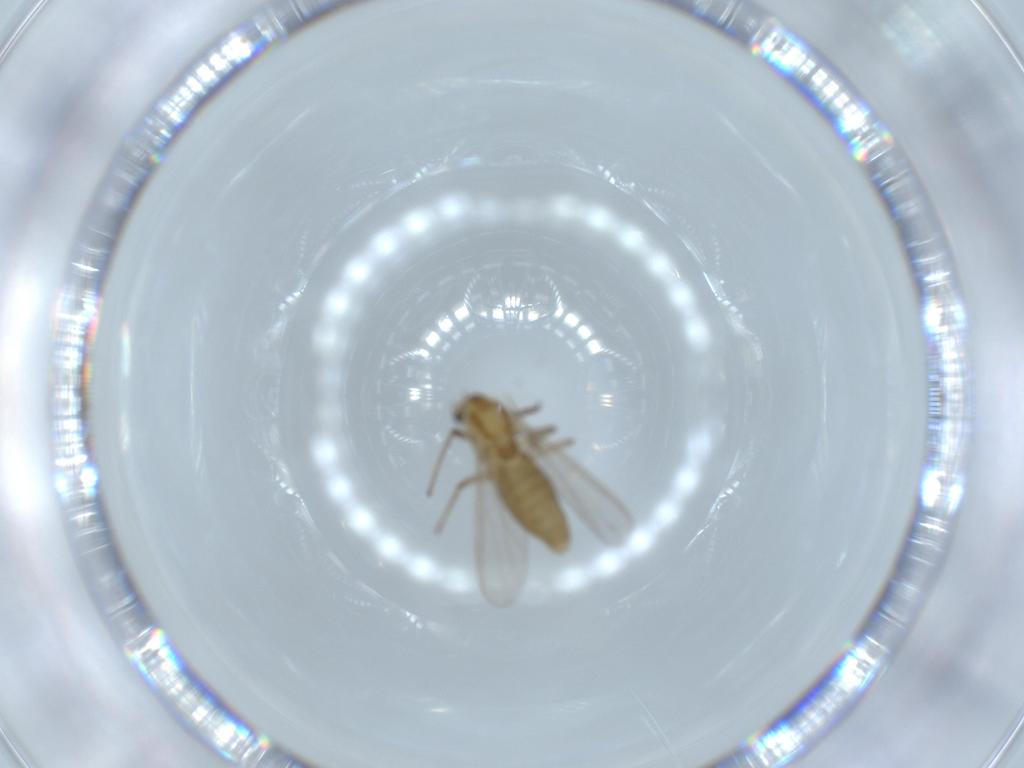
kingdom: Animalia
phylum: Arthropoda
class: Insecta
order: Diptera
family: Chironomidae
